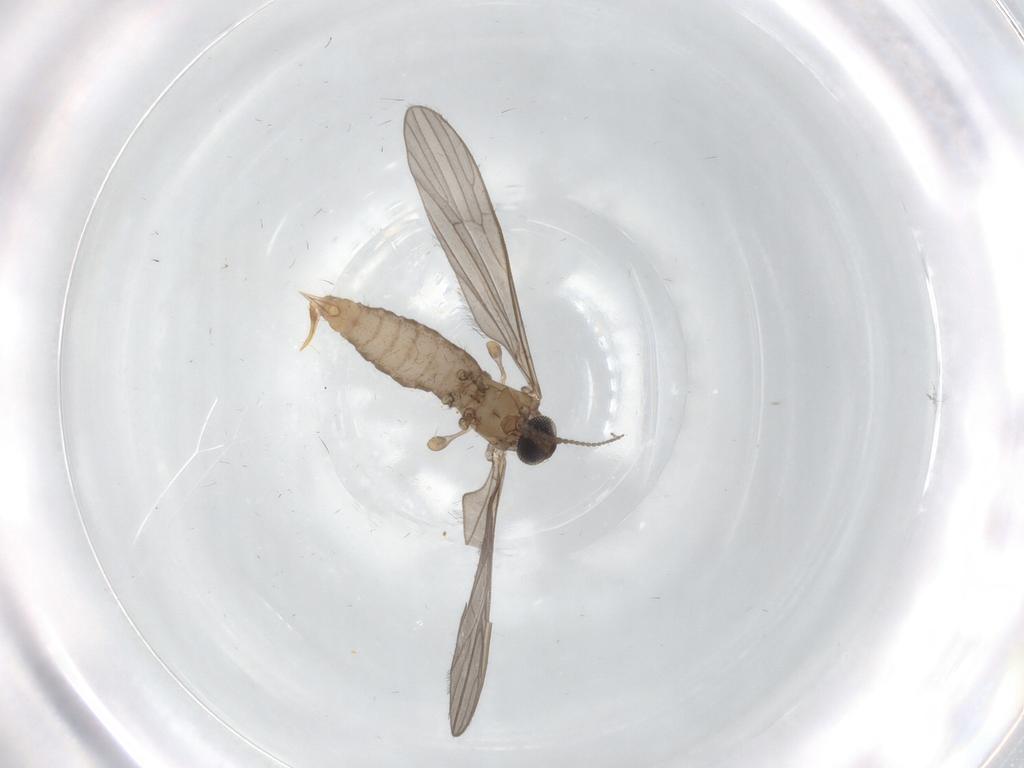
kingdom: Animalia
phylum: Arthropoda
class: Insecta
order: Diptera
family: Limoniidae
